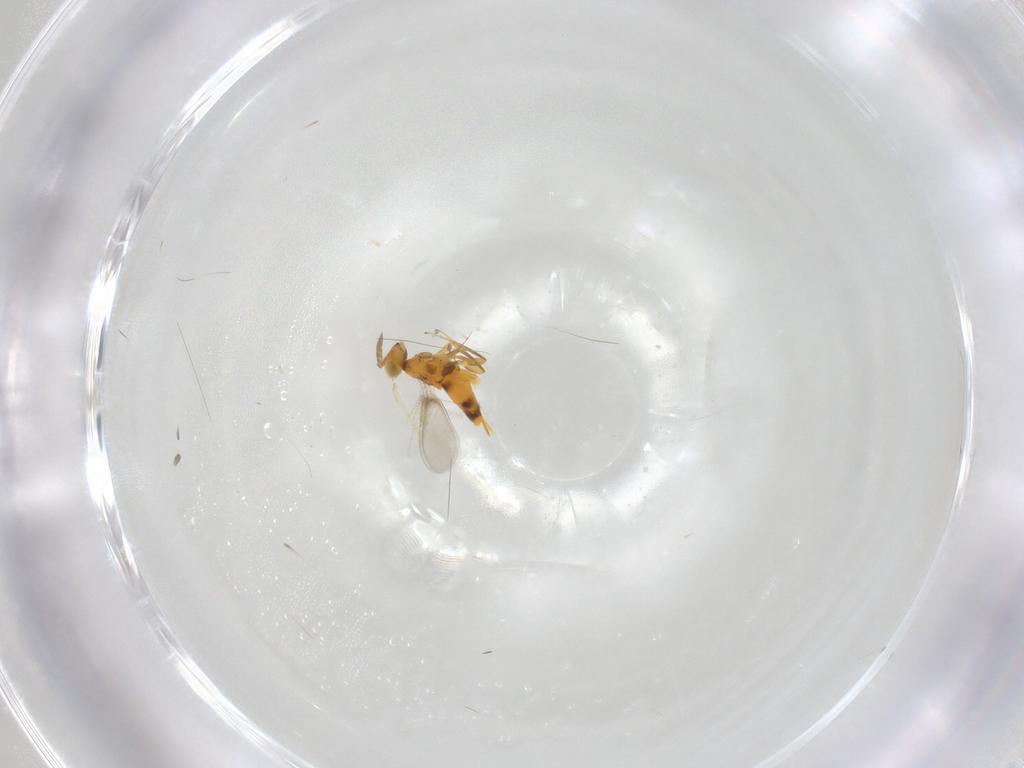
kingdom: Animalia
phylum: Arthropoda
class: Insecta
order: Hymenoptera
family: Aphelinidae
